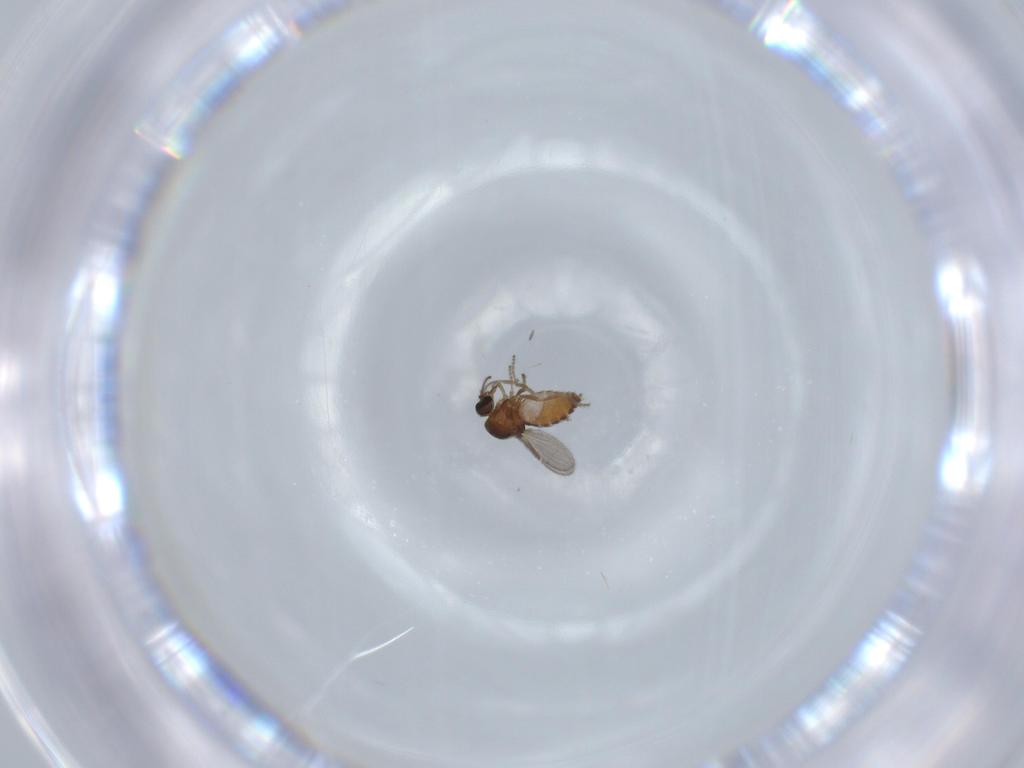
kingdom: Animalia
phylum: Arthropoda
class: Insecta
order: Diptera
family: Ceratopogonidae
